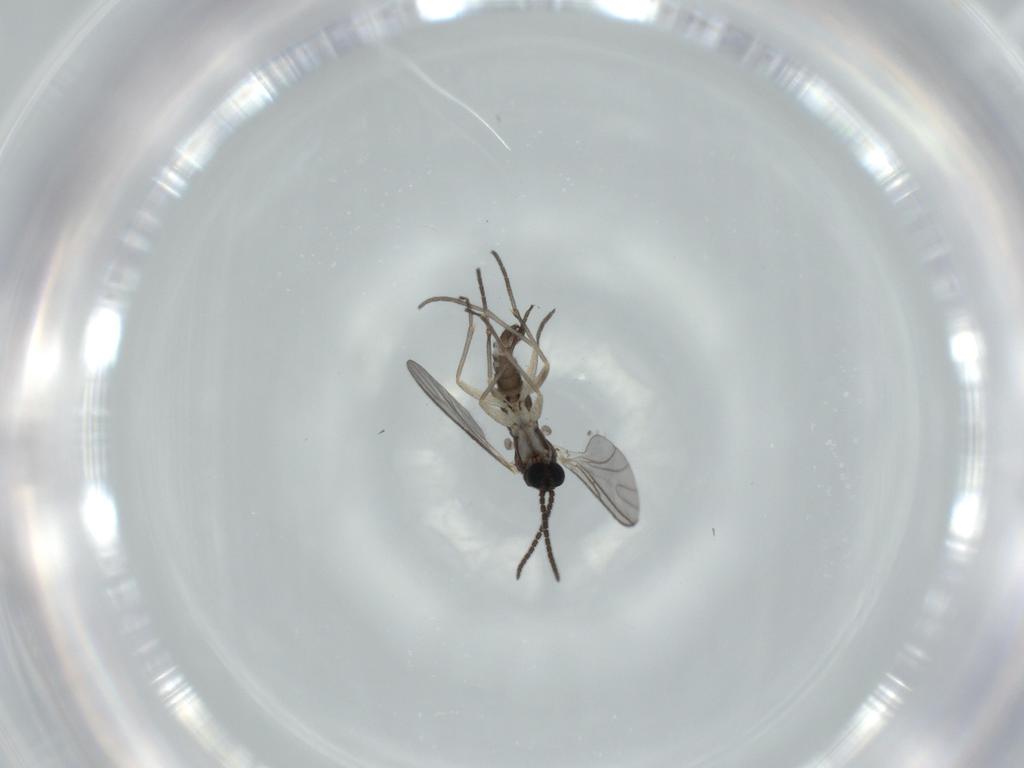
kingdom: Animalia
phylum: Arthropoda
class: Insecta
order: Diptera
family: Sciaridae
